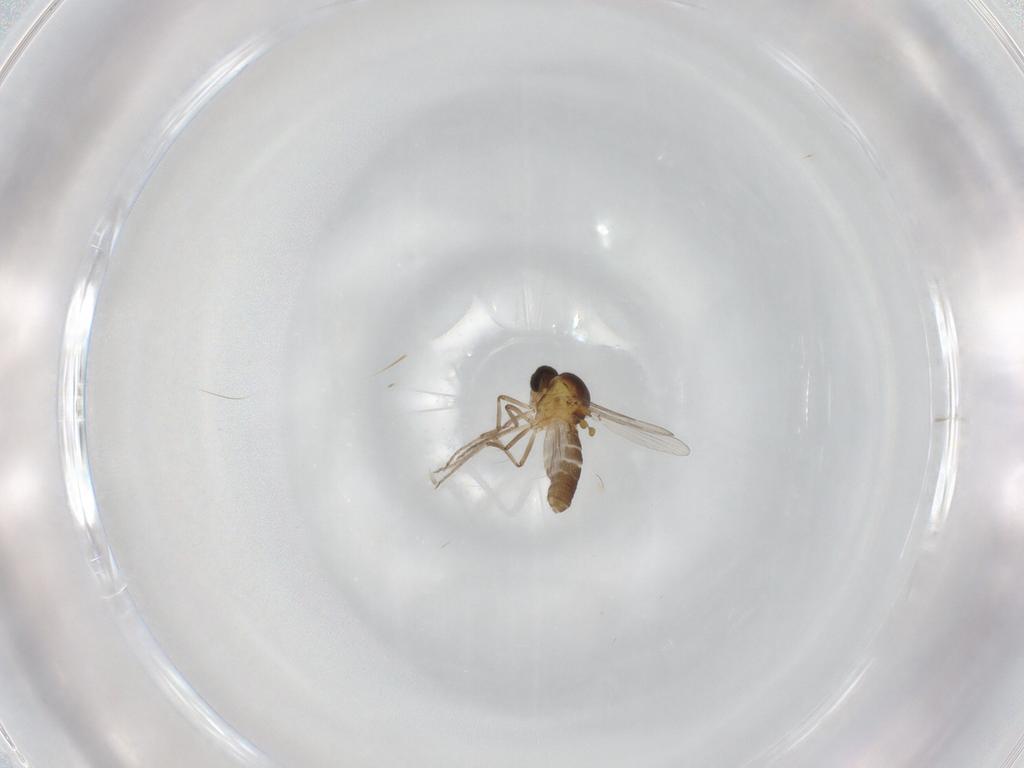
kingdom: Animalia
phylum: Arthropoda
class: Insecta
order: Diptera
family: Ceratopogonidae
